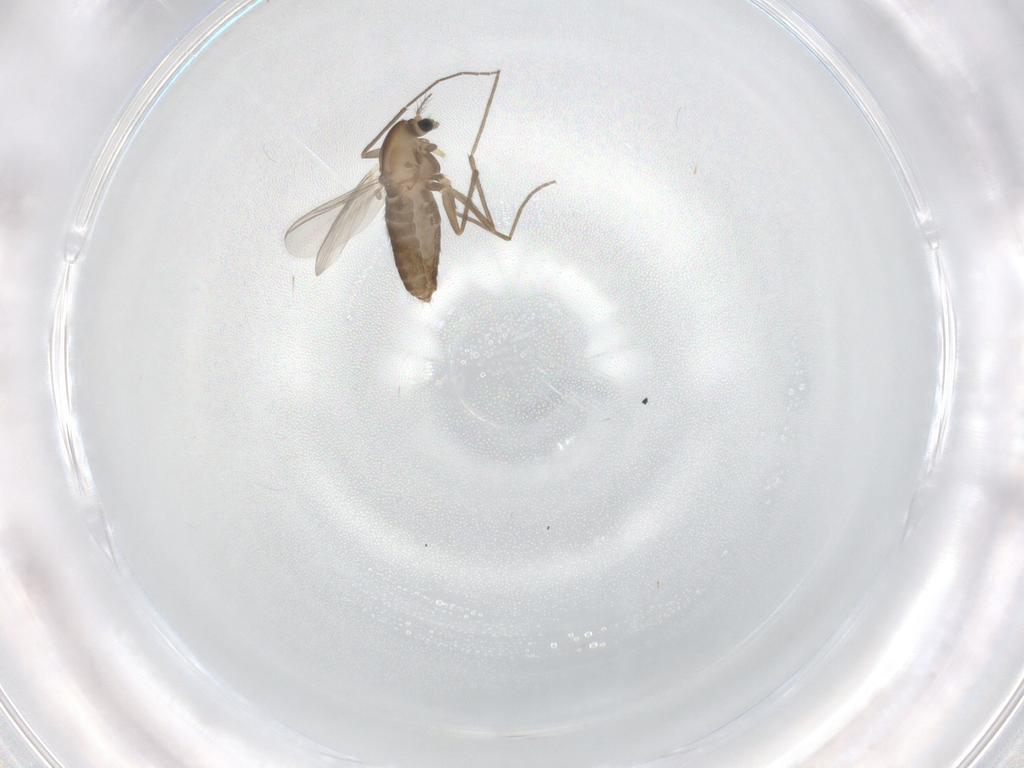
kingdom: Animalia
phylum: Arthropoda
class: Insecta
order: Diptera
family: Chironomidae
